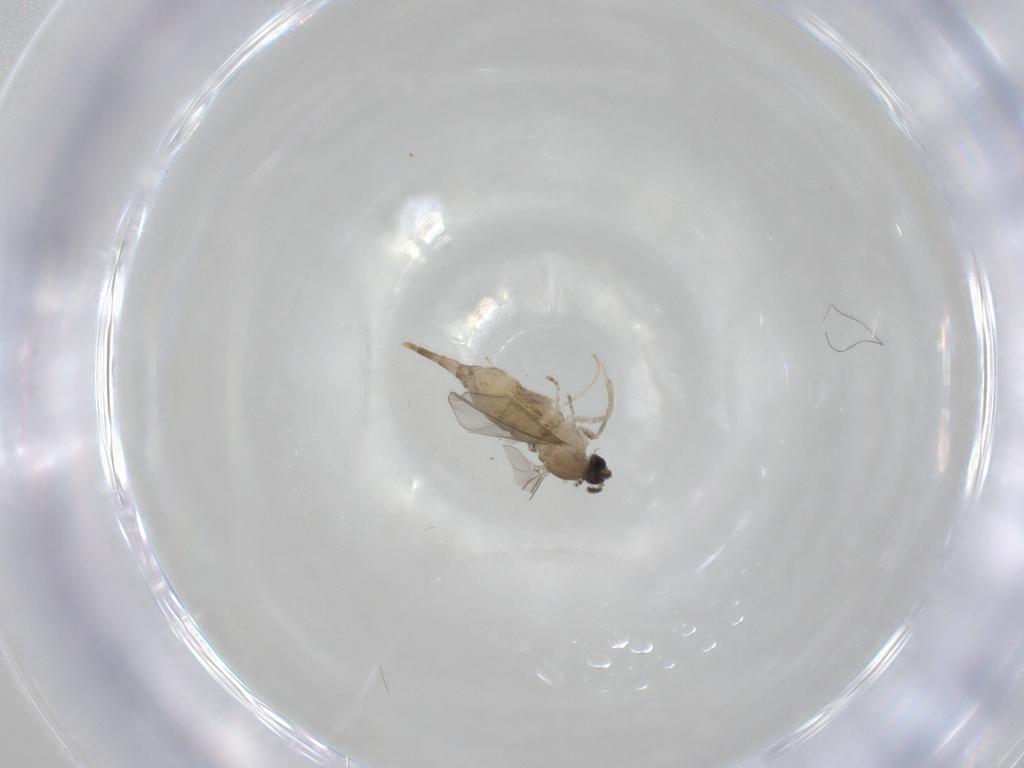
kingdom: Animalia
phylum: Arthropoda
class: Insecta
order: Diptera
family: Cecidomyiidae
